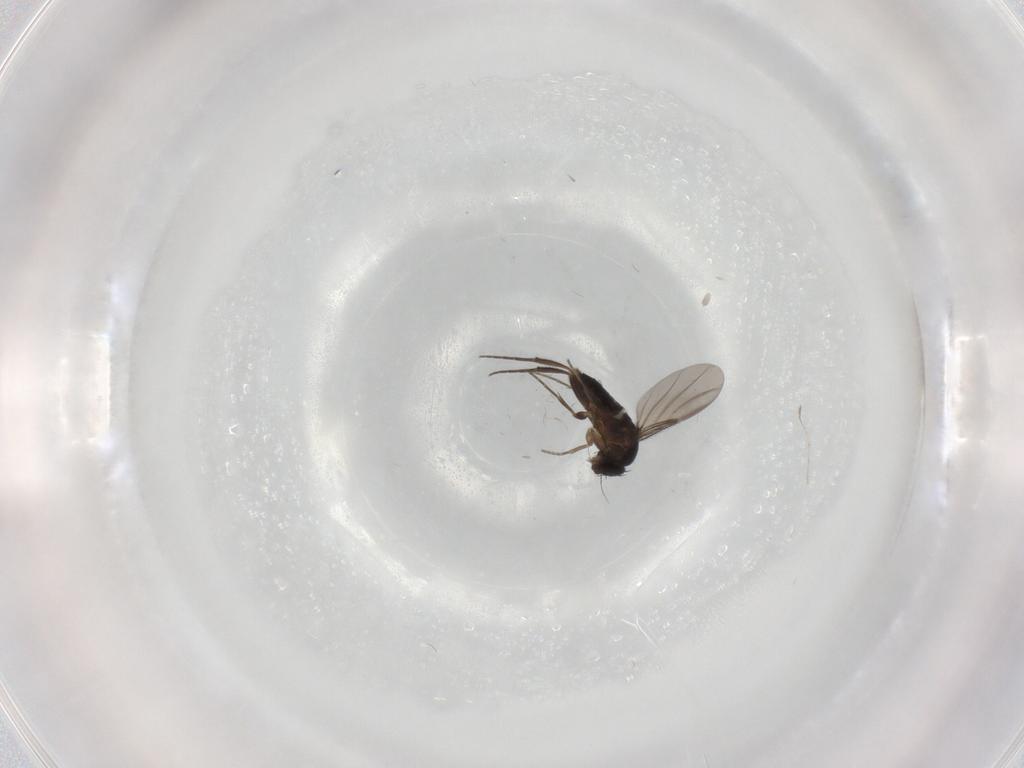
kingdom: Animalia
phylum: Arthropoda
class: Insecta
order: Diptera
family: Phoridae
